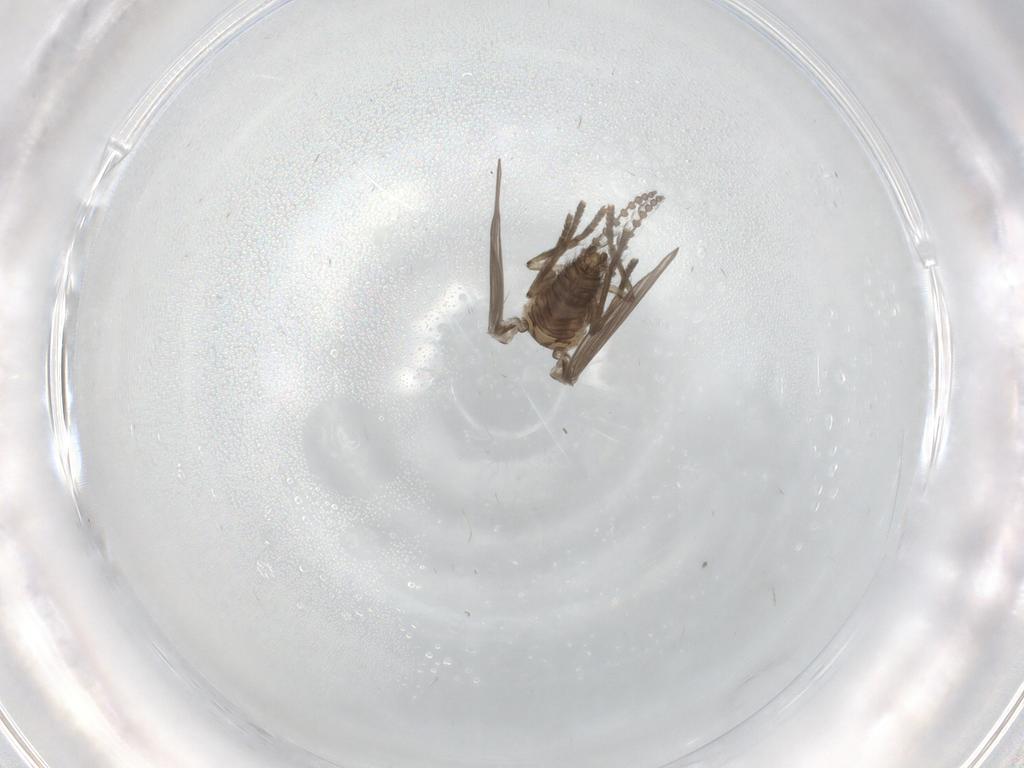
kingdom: Animalia
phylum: Arthropoda
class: Insecta
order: Diptera
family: Psychodidae
